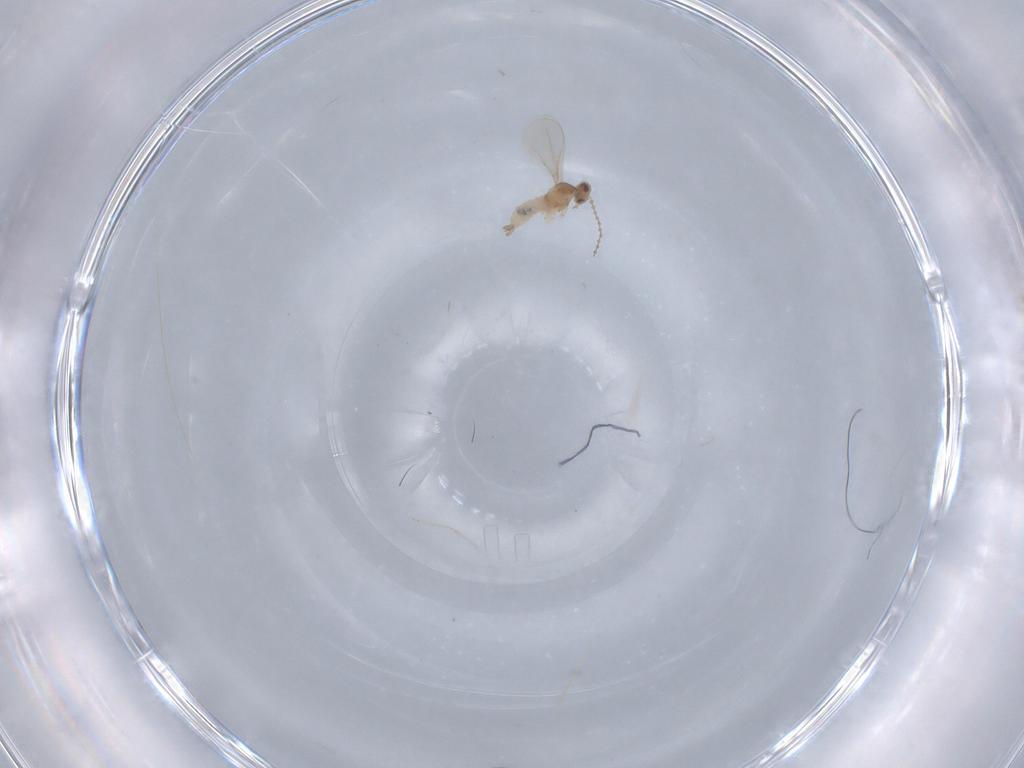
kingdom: Animalia
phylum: Arthropoda
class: Insecta
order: Diptera
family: Cecidomyiidae
